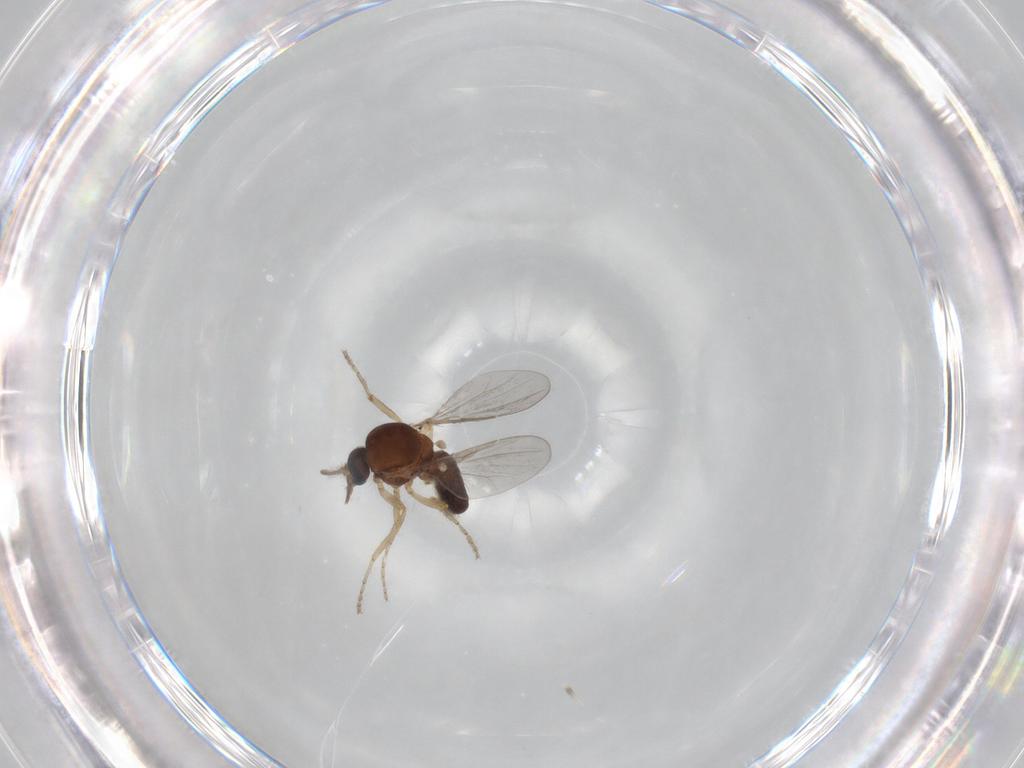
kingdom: Animalia
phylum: Arthropoda
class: Insecta
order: Diptera
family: Ceratopogonidae
